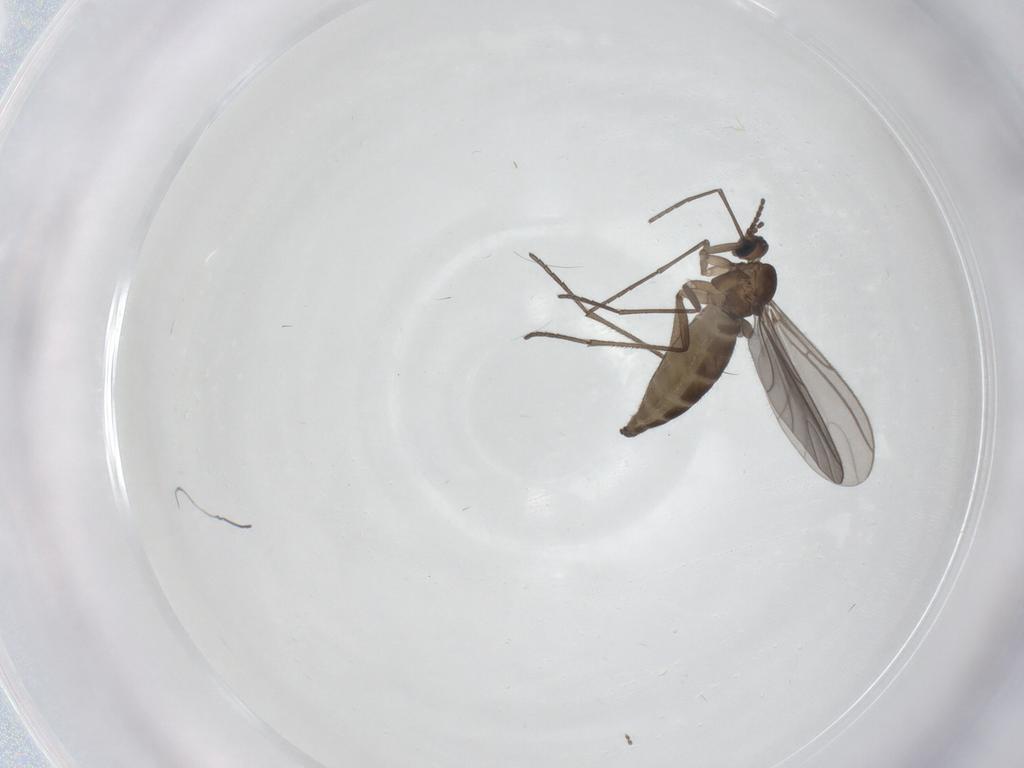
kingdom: Animalia
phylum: Arthropoda
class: Insecta
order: Diptera
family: Sciaridae
